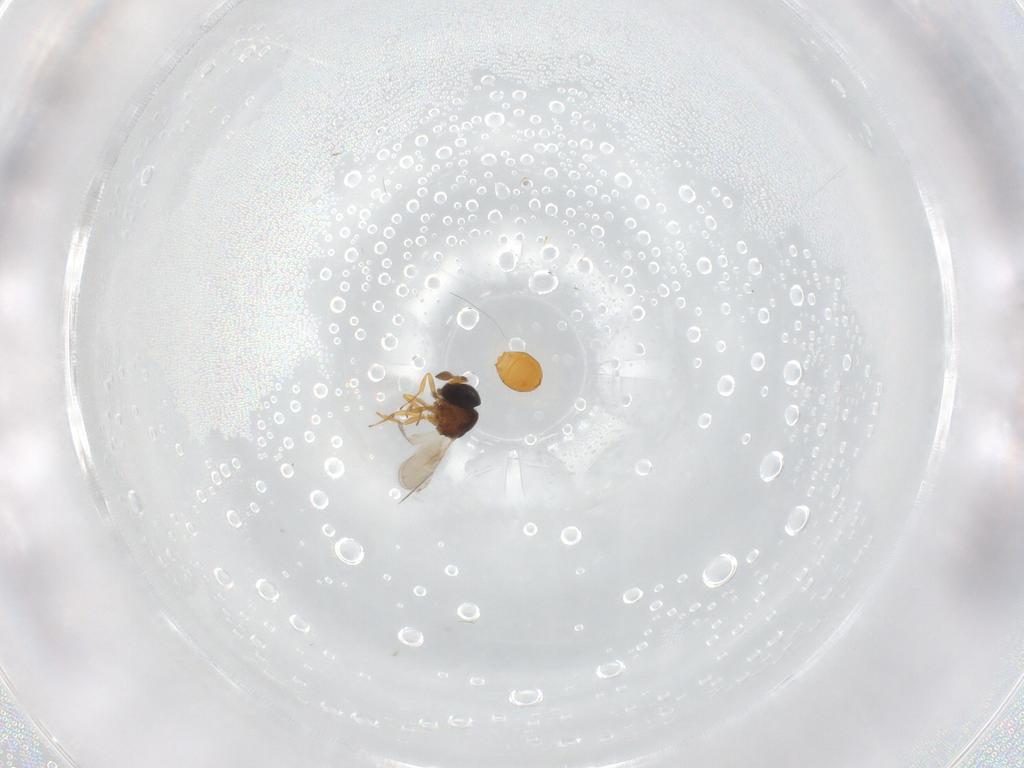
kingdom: Animalia
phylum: Arthropoda
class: Insecta
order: Hymenoptera
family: Scelionidae
